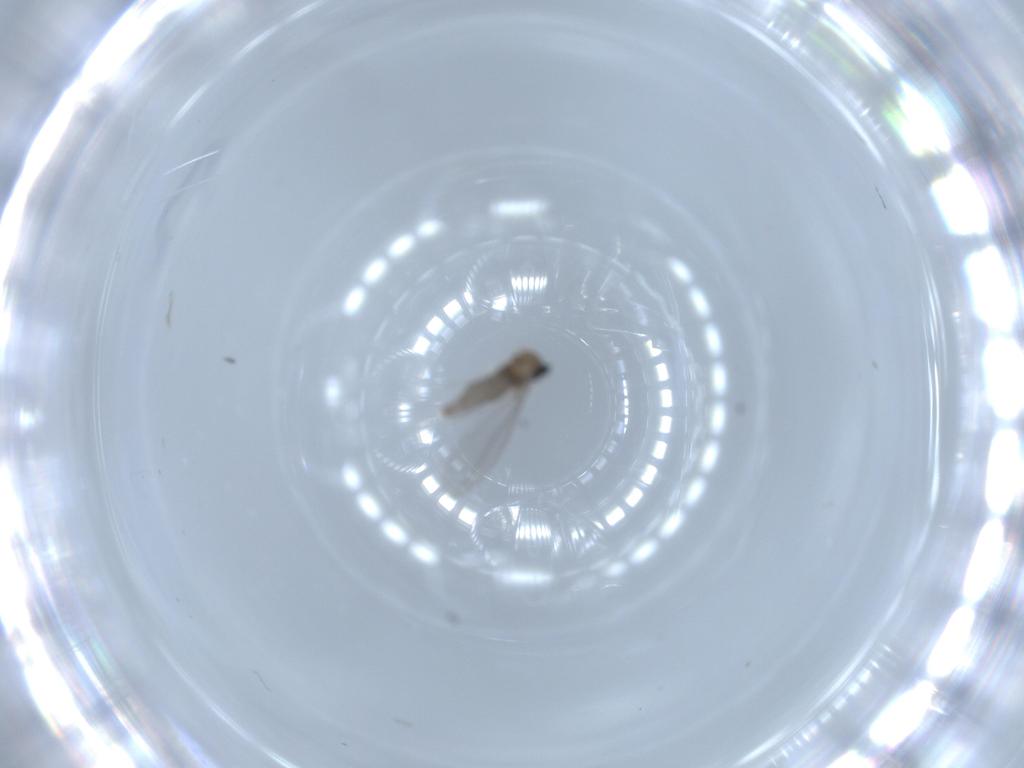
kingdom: Animalia
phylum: Arthropoda
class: Insecta
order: Diptera
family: Cecidomyiidae
